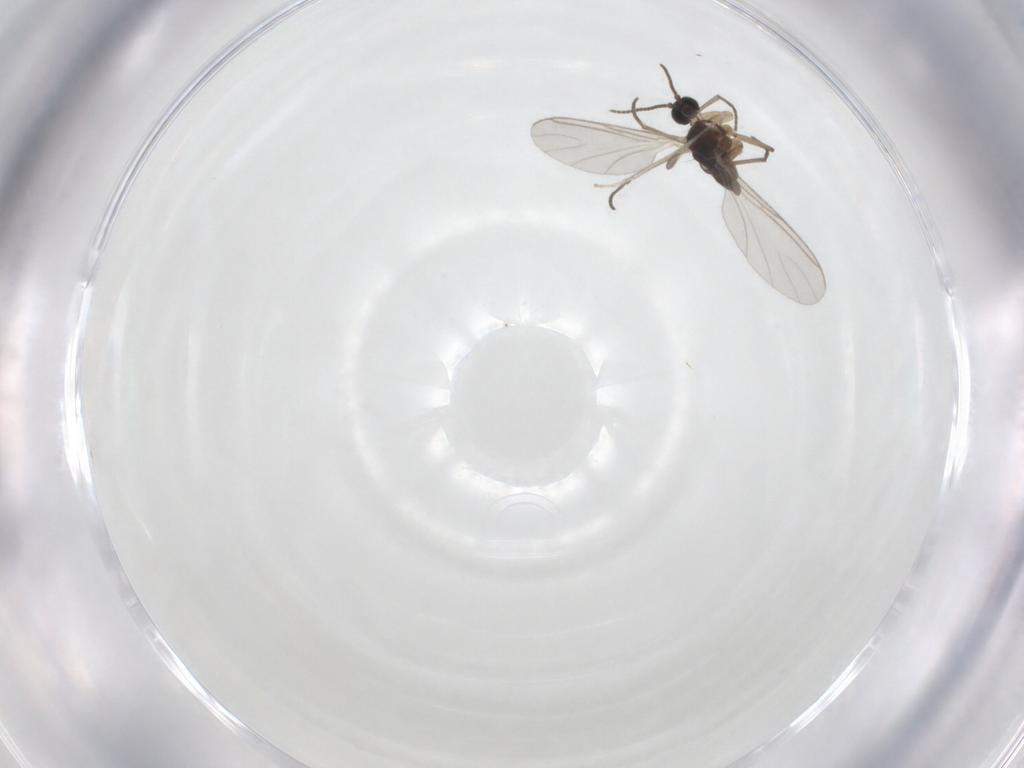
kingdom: Animalia
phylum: Arthropoda
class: Insecta
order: Diptera
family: Sciaridae
